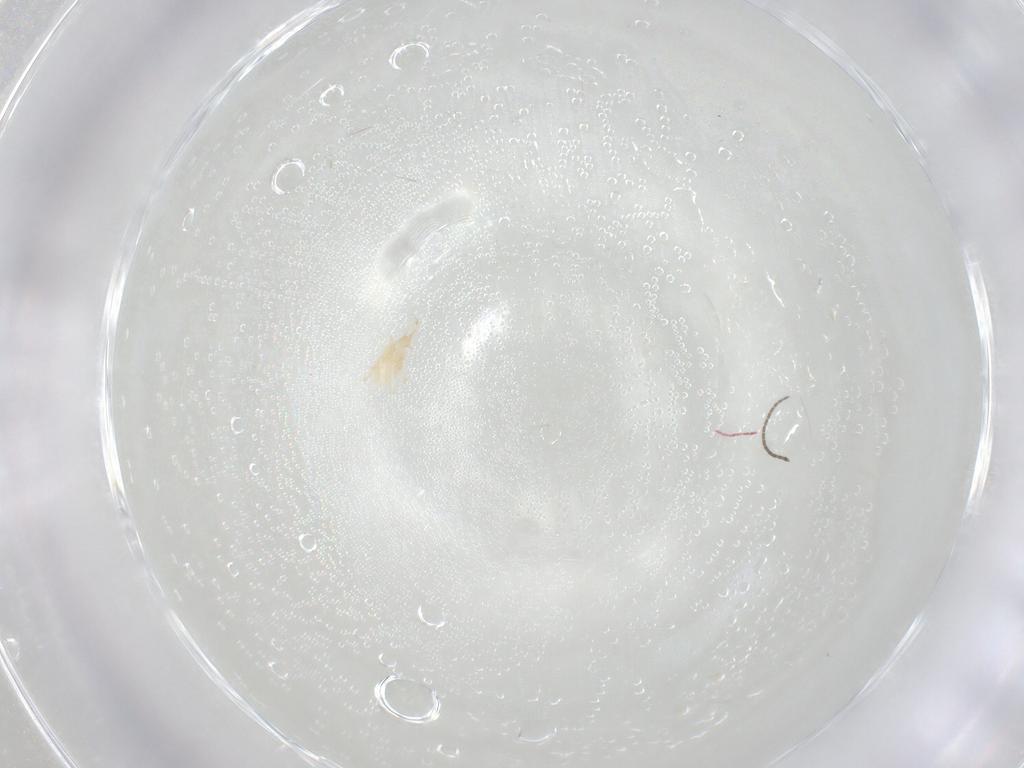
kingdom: Animalia
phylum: Arthropoda
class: Arachnida
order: Trombidiformes
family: Cunaxidae
